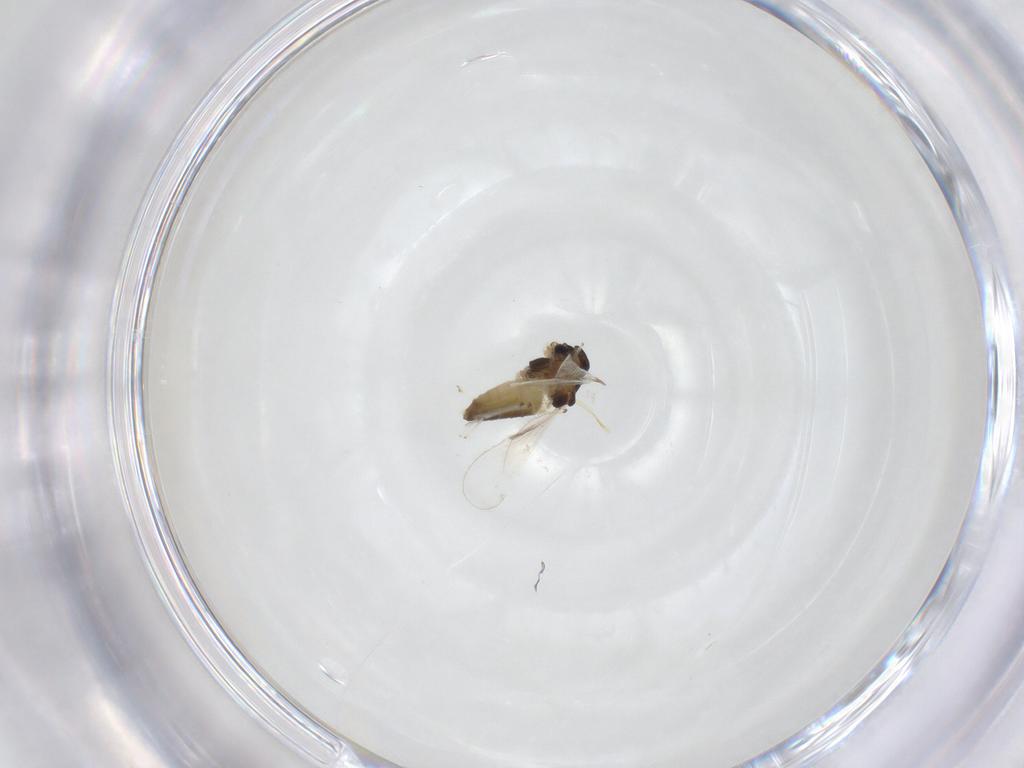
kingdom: Animalia
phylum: Arthropoda
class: Insecta
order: Diptera
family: Chironomidae
